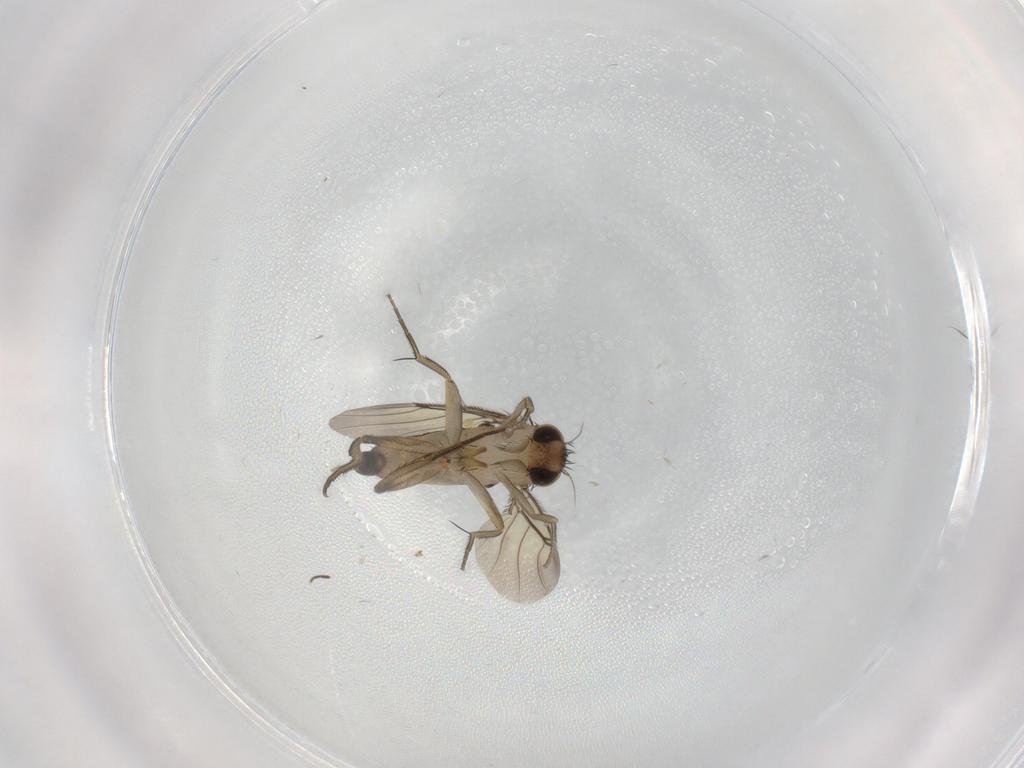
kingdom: Animalia
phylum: Arthropoda
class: Insecta
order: Diptera
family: Phoridae
